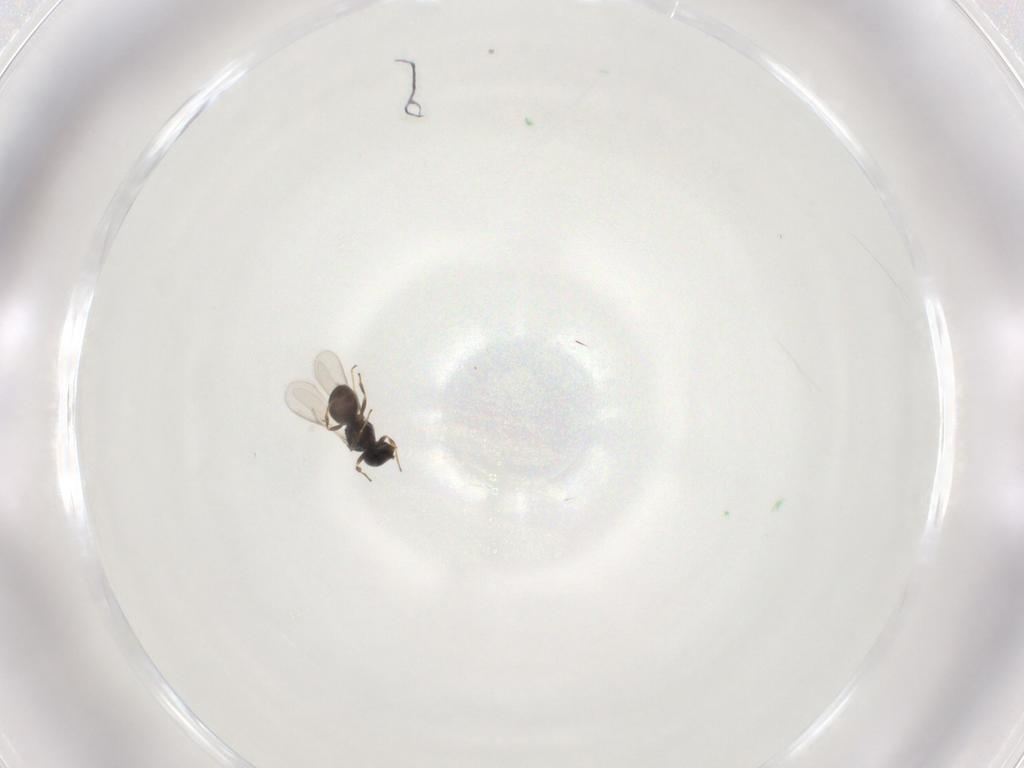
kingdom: Animalia
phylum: Arthropoda
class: Insecta
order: Hymenoptera
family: Scelionidae
